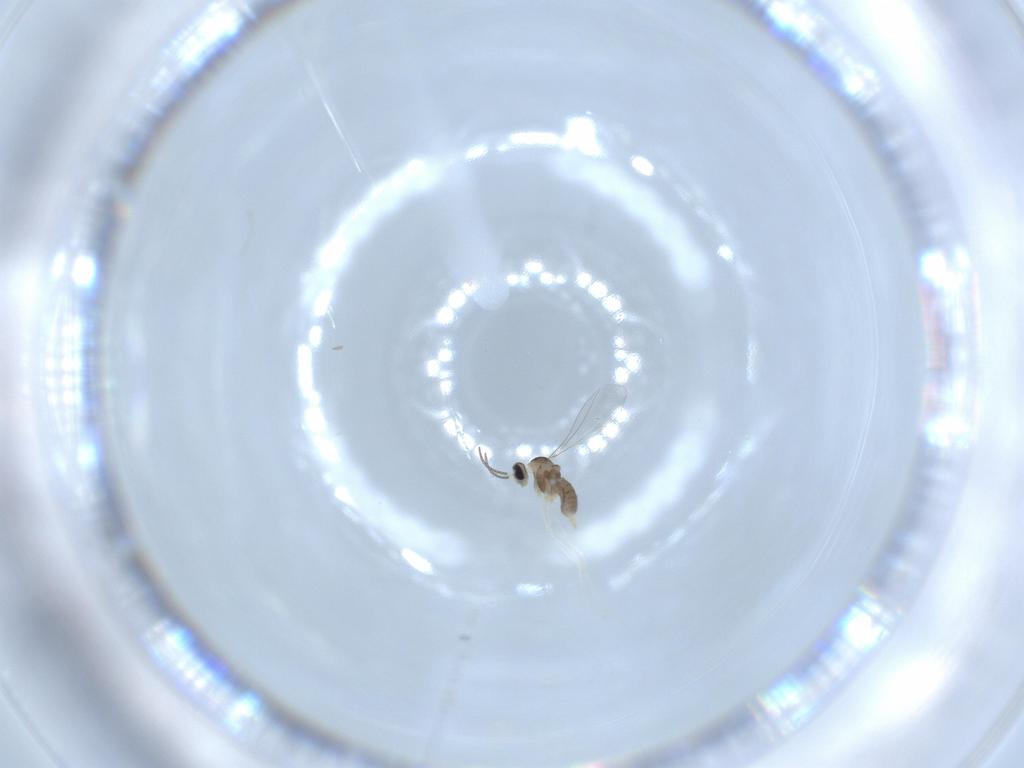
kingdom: Animalia
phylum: Arthropoda
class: Insecta
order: Diptera
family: Cecidomyiidae
